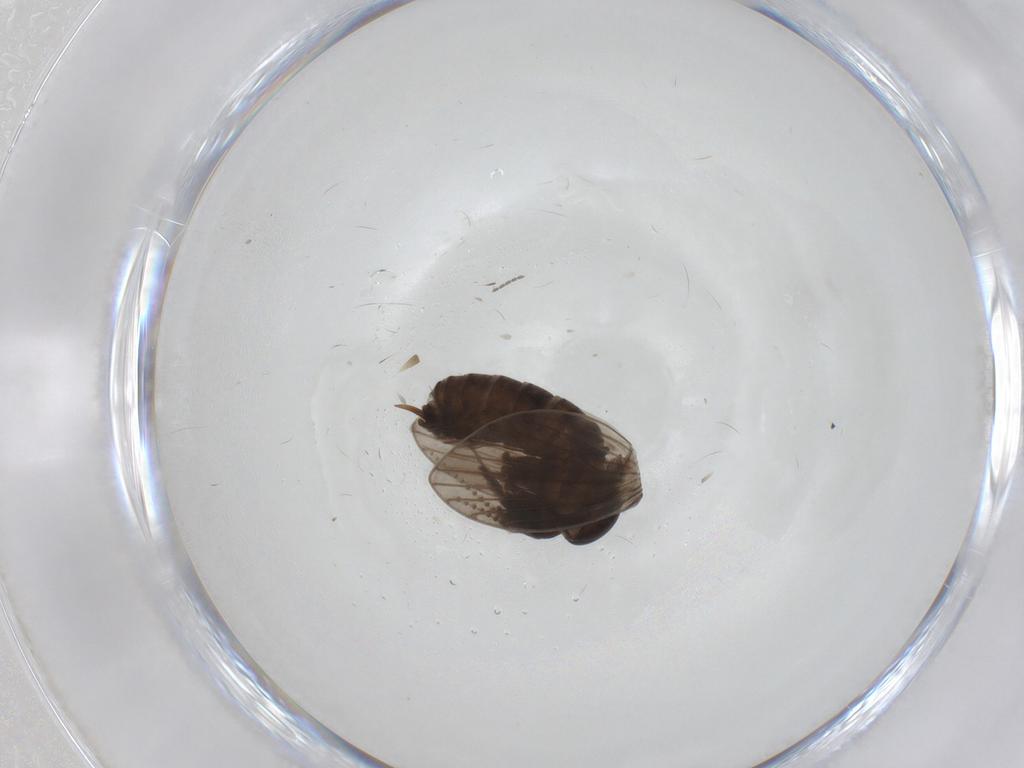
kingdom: Animalia
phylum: Arthropoda
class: Insecta
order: Diptera
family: Psychodidae
